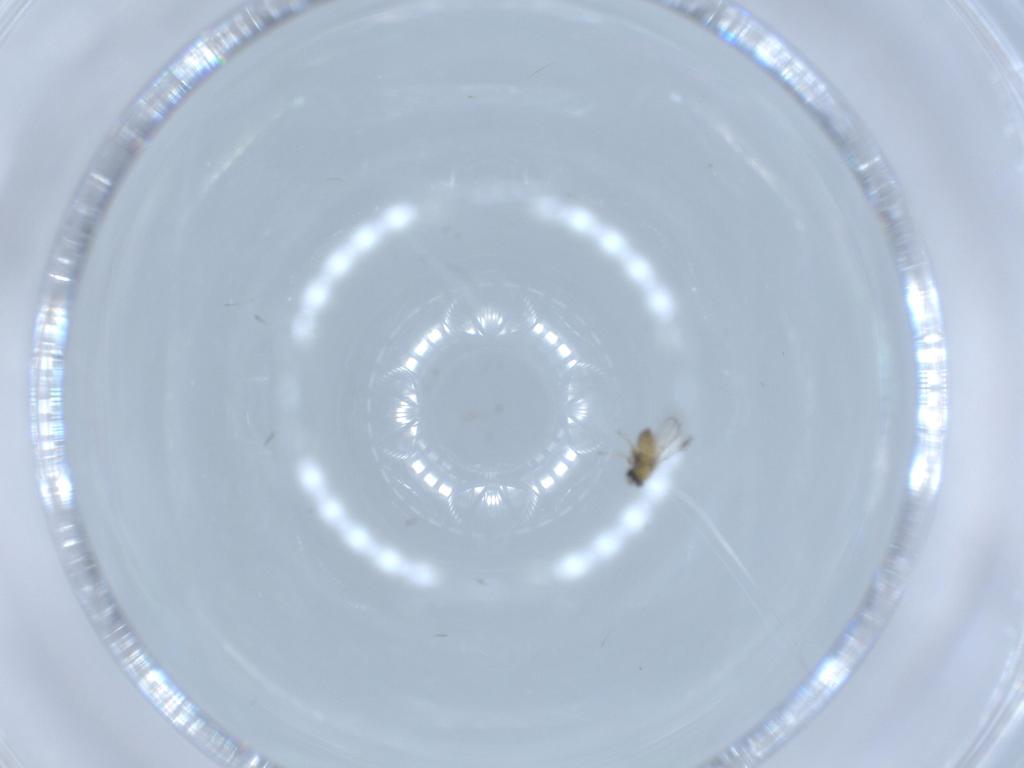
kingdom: Animalia
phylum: Arthropoda
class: Insecta
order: Hymenoptera
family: Trichogrammatidae
